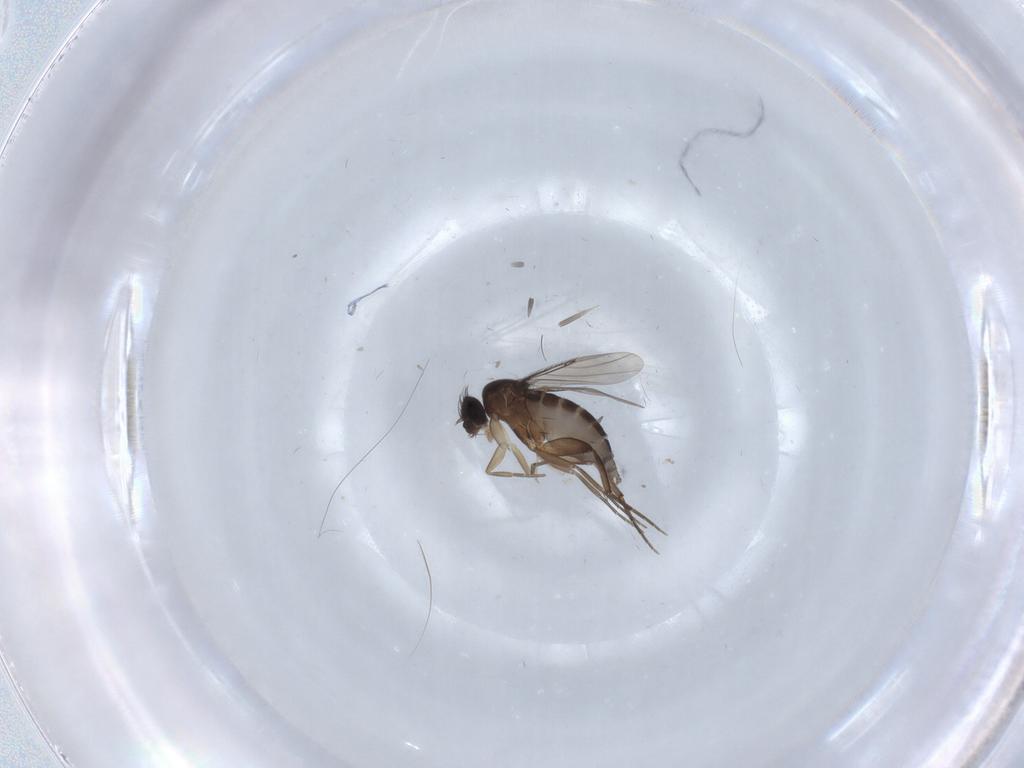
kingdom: Animalia
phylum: Arthropoda
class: Insecta
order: Diptera
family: Phoridae
